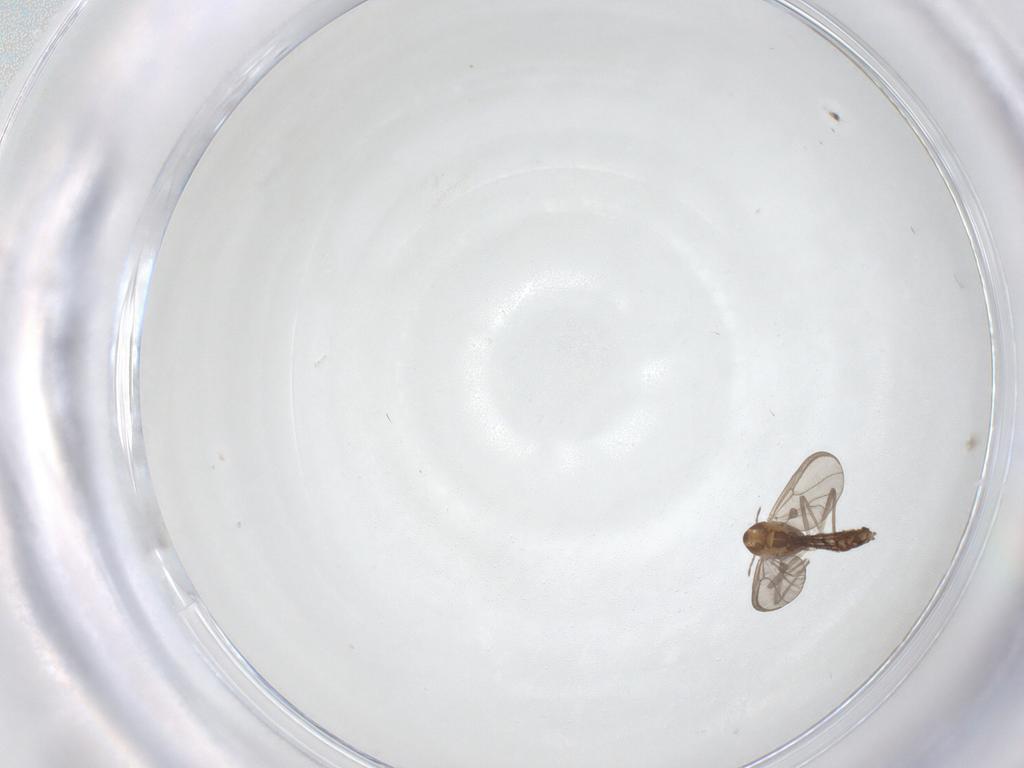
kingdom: Animalia
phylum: Arthropoda
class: Insecta
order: Diptera
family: Chironomidae
